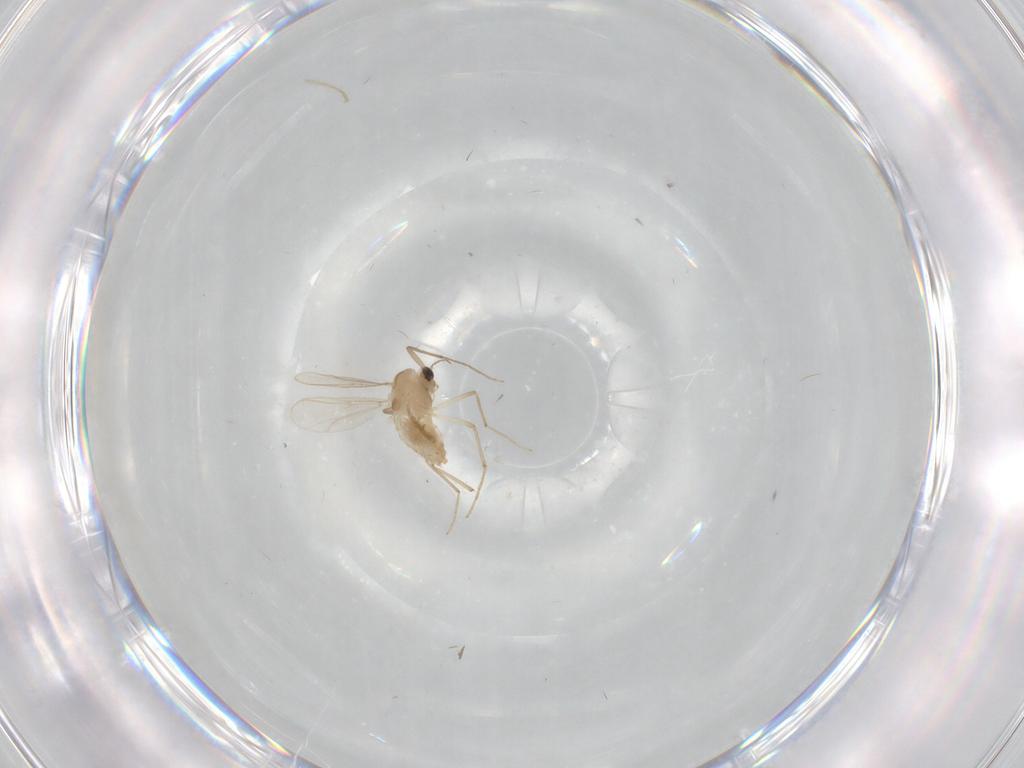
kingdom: Animalia
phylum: Arthropoda
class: Insecta
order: Diptera
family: Chironomidae
